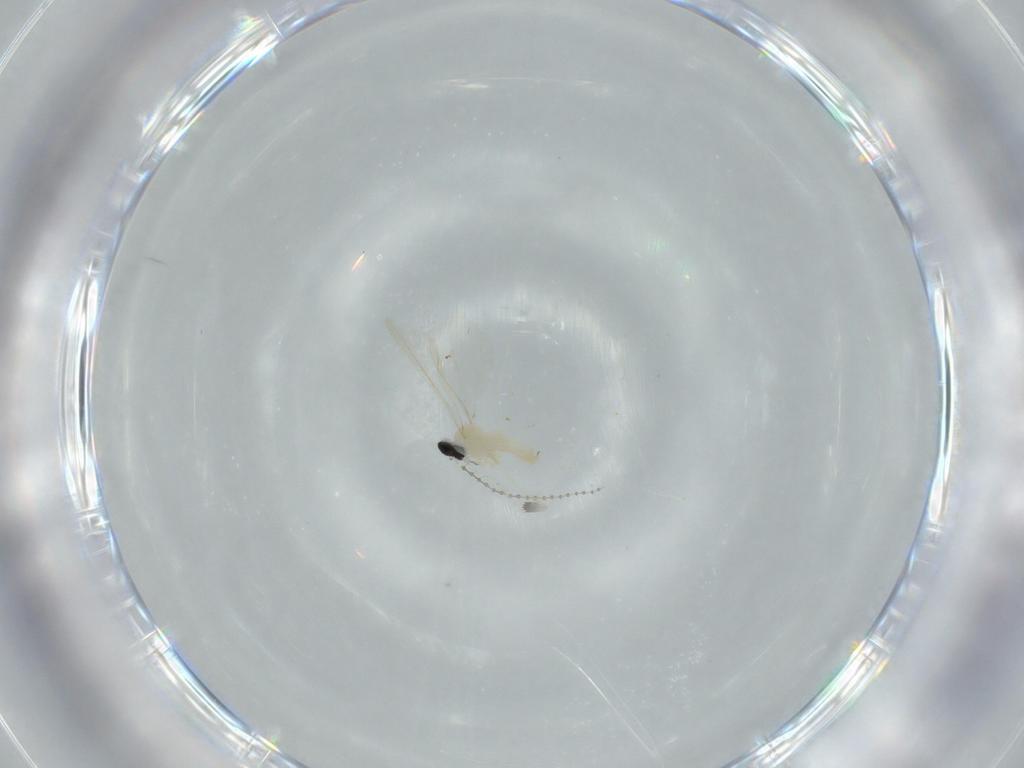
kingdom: Animalia
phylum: Arthropoda
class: Insecta
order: Diptera
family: Cecidomyiidae
